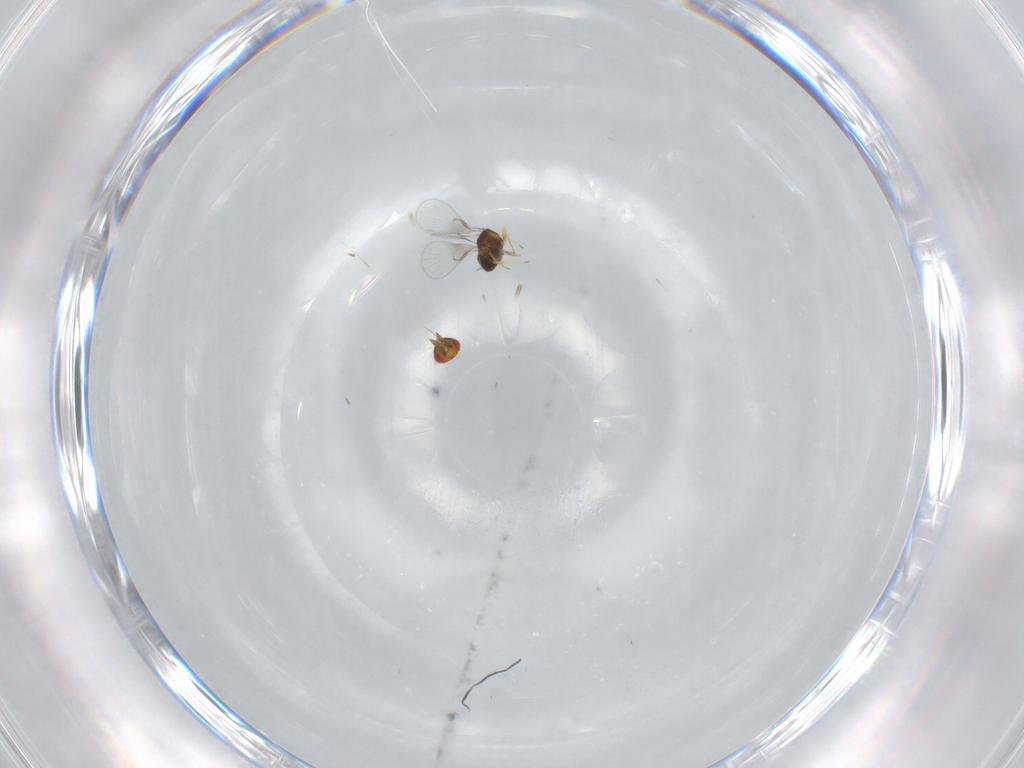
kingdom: Animalia
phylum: Arthropoda
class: Insecta
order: Hymenoptera
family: Trichogrammatidae
